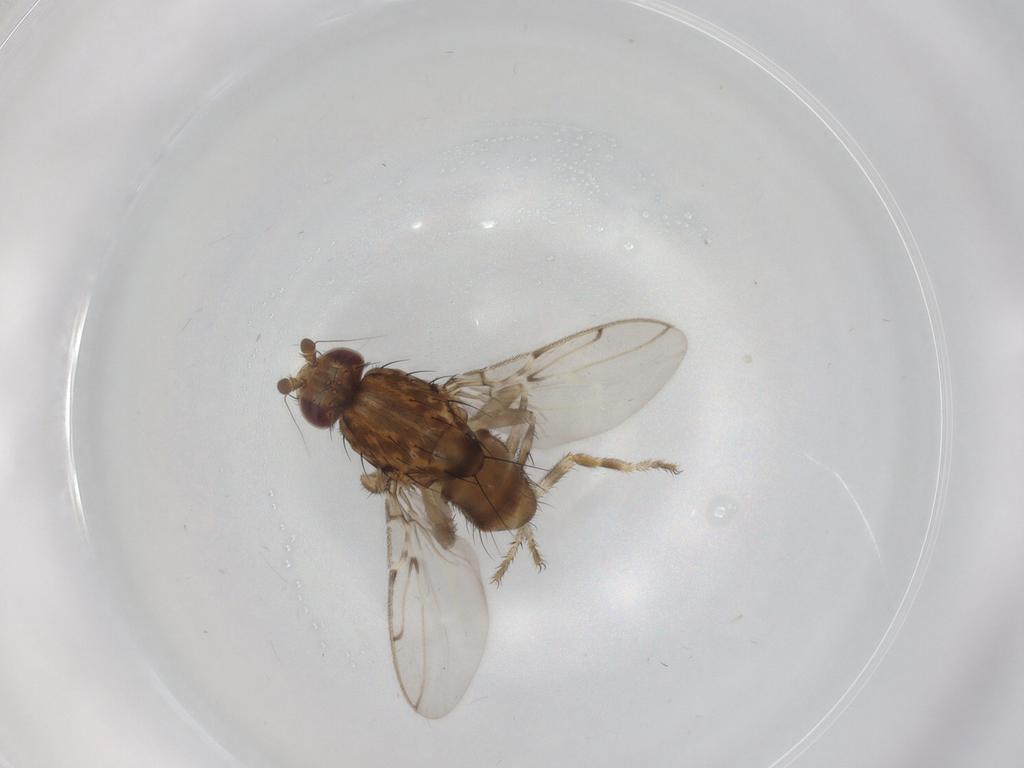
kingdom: Animalia
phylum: Arthropoda
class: Insecta
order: Diptera
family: Sphaeroceridae
